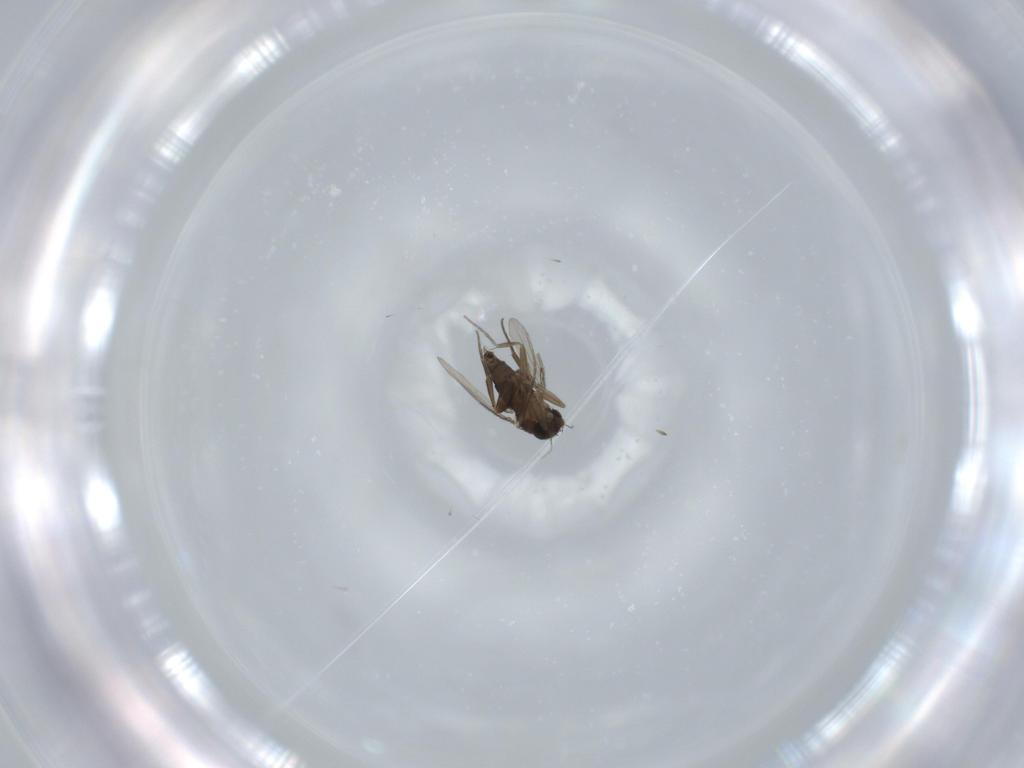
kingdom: Animalia
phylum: Arthropoda
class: Insecta
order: Diptera
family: Phoridae
